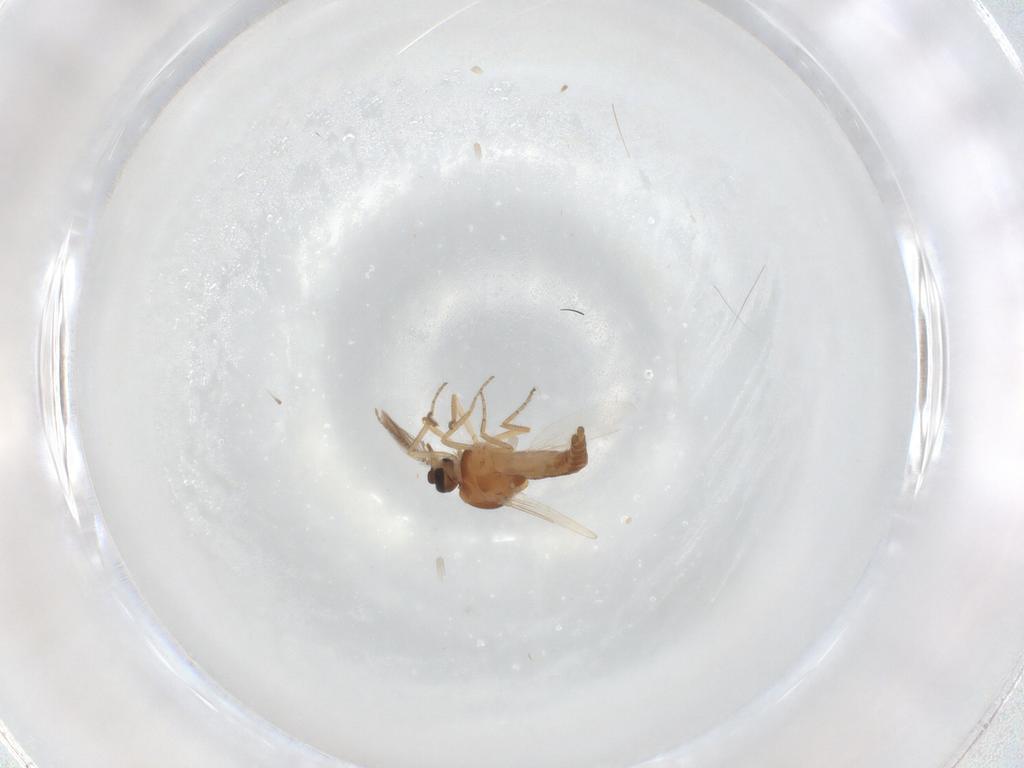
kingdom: Animalia
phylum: Arthropoda
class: Insecta
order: Diptera
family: Ceratopogonidae
